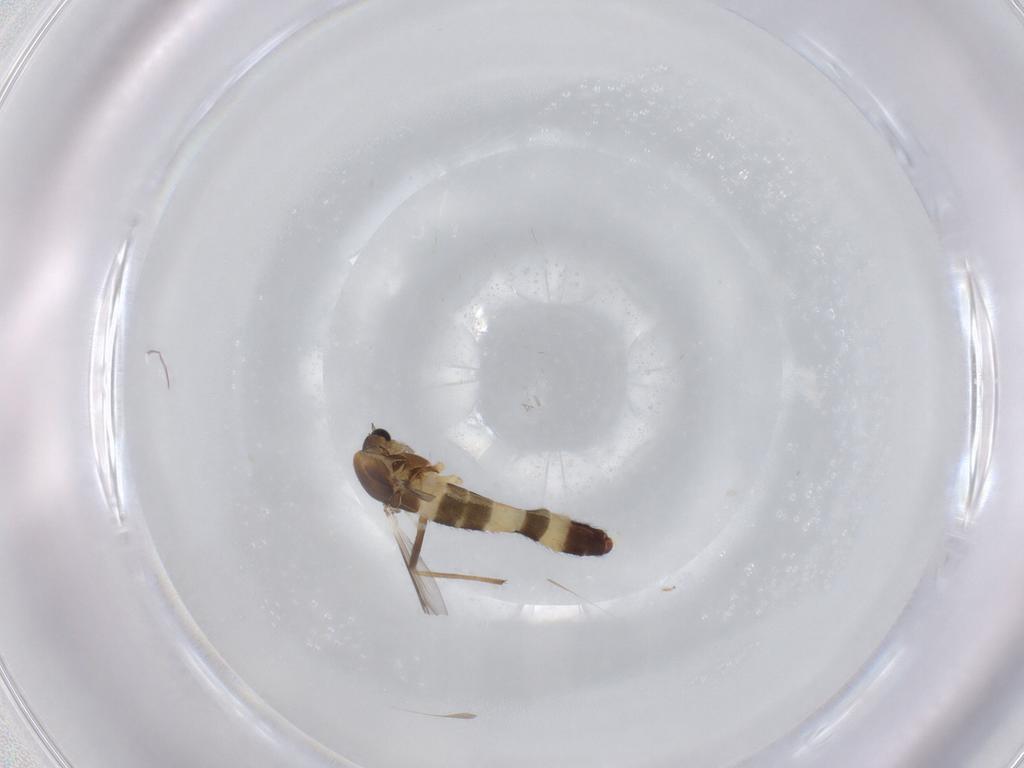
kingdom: Animalia
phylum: Arthropoda
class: Insecta
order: Diptera
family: Chironomidae
